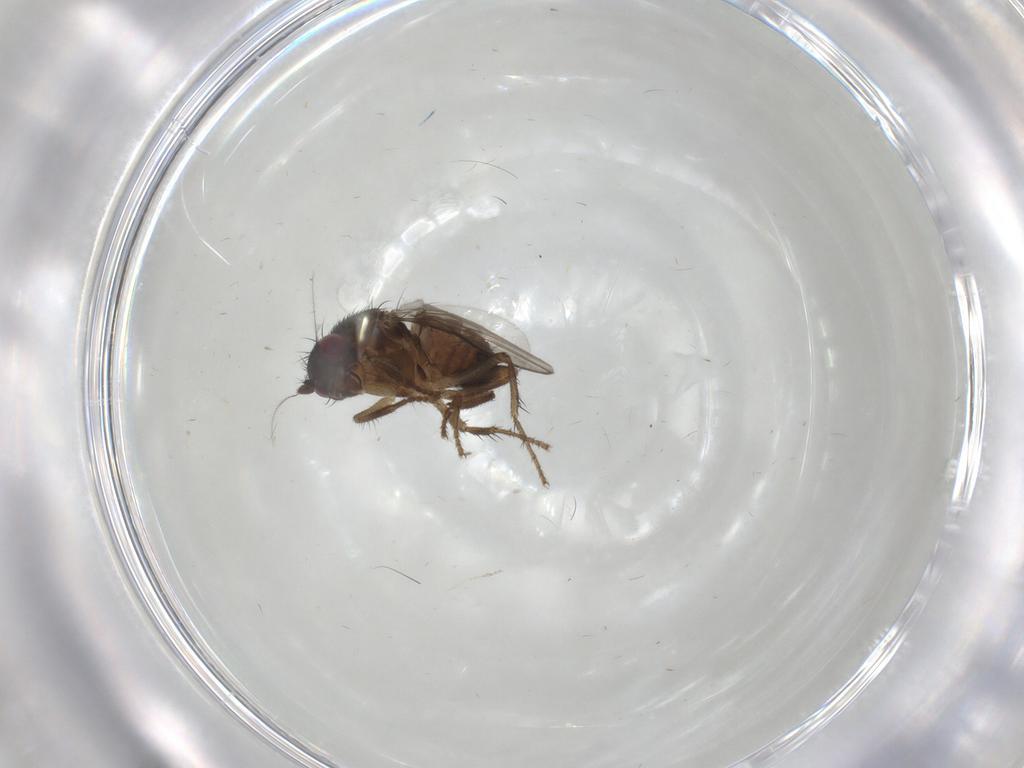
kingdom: Animalia
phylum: Arthropoda
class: Insecta
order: Diptera
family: Sphaeroceridae
